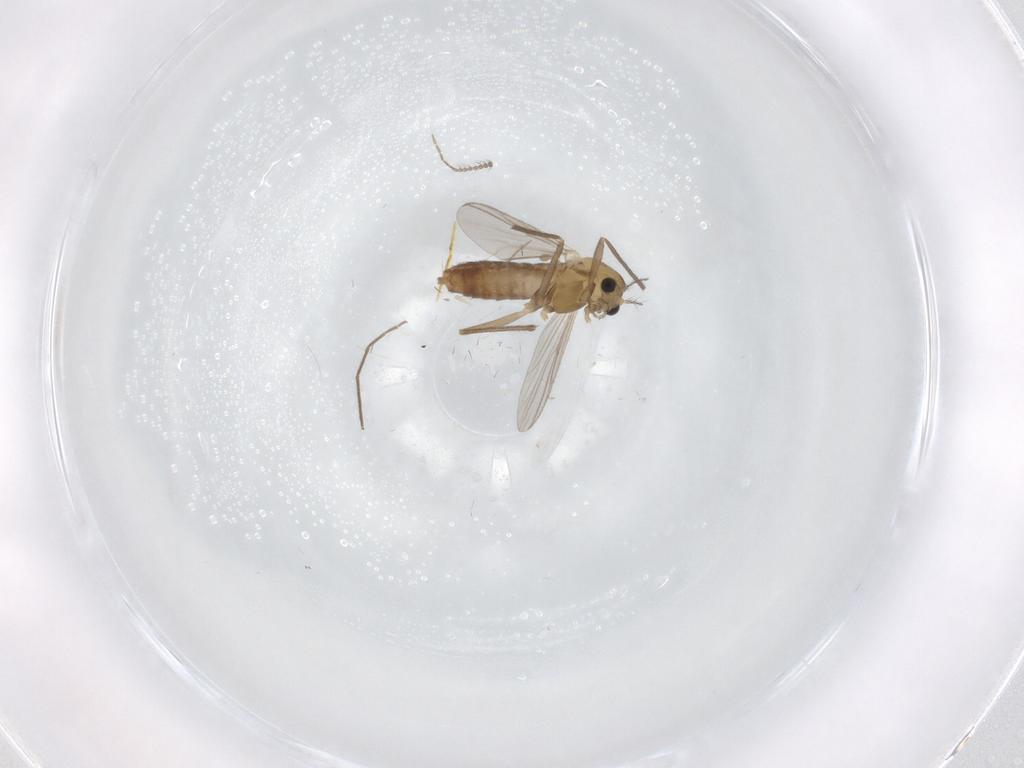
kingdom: Animalia
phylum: Arthropoda
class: Insecta
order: Diptera
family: Chironomidae
